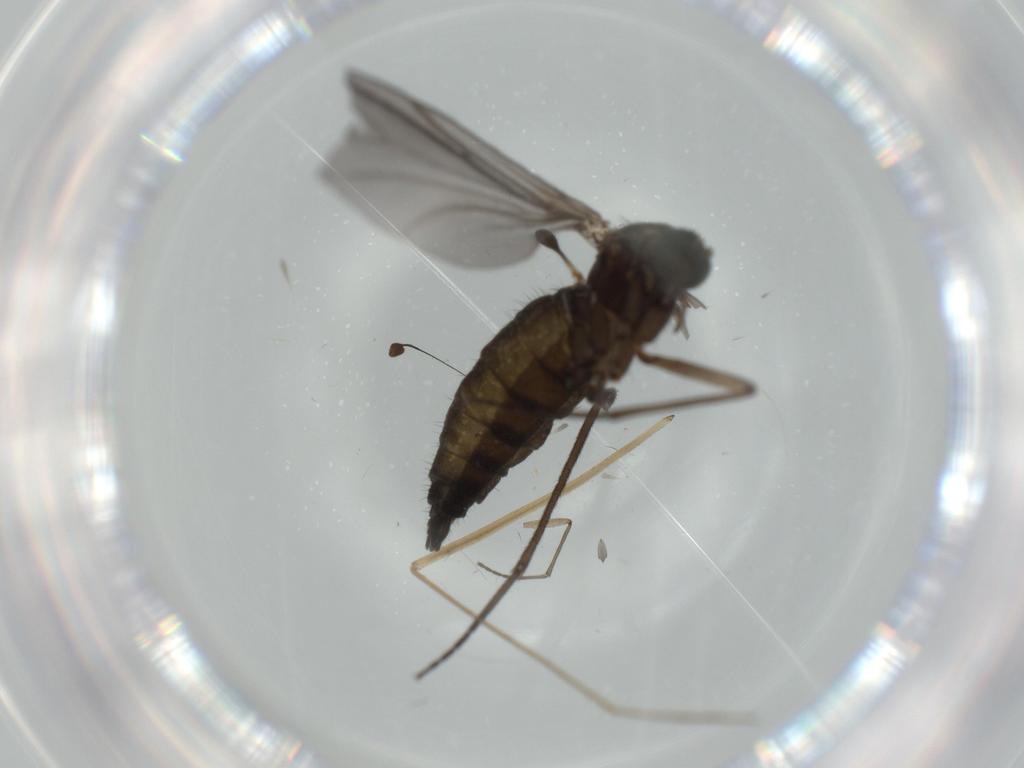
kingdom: Animalia
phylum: Arthropoda
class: Insecta
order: Diptera
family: Sciaridae
